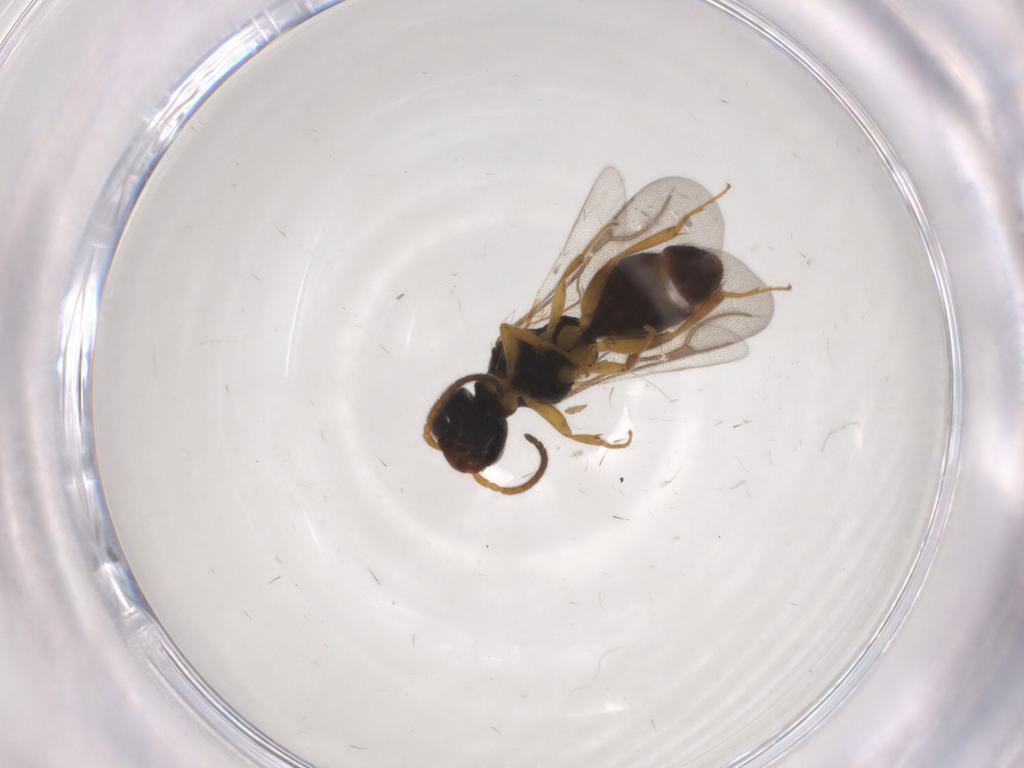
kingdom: Animalia
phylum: Arthropoda
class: Insecta
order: Hymenoptera
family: Bethylidae
